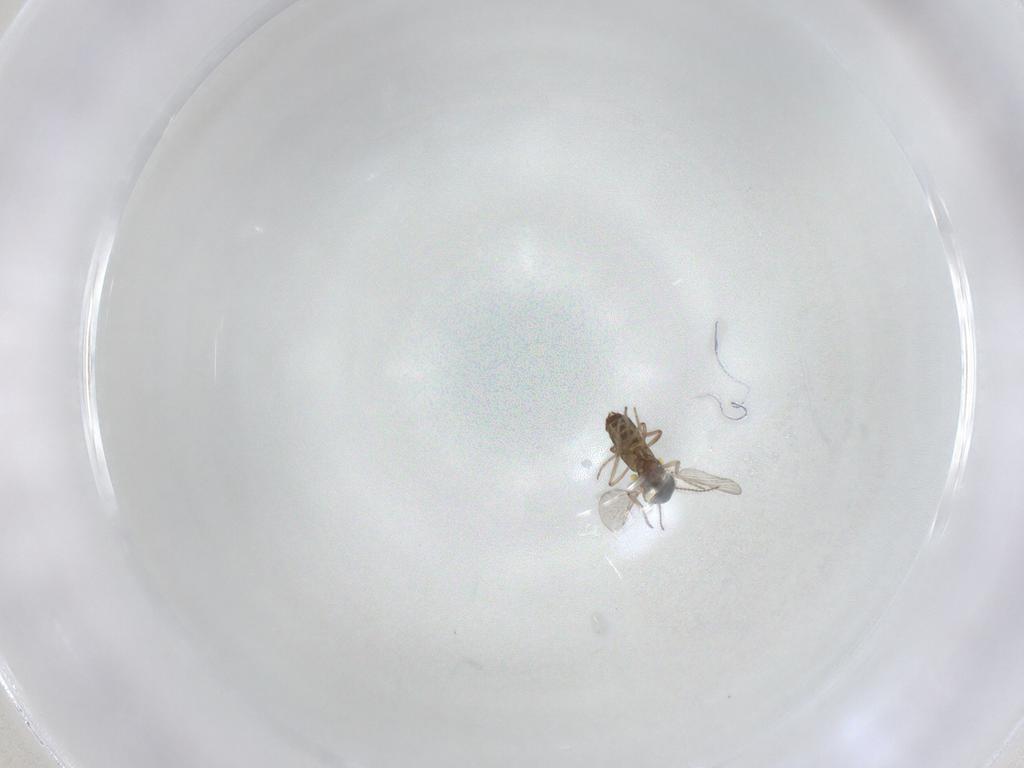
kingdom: Animalia
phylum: Arthropoda
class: Insecta
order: Diptera
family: Ceratopogonidae
